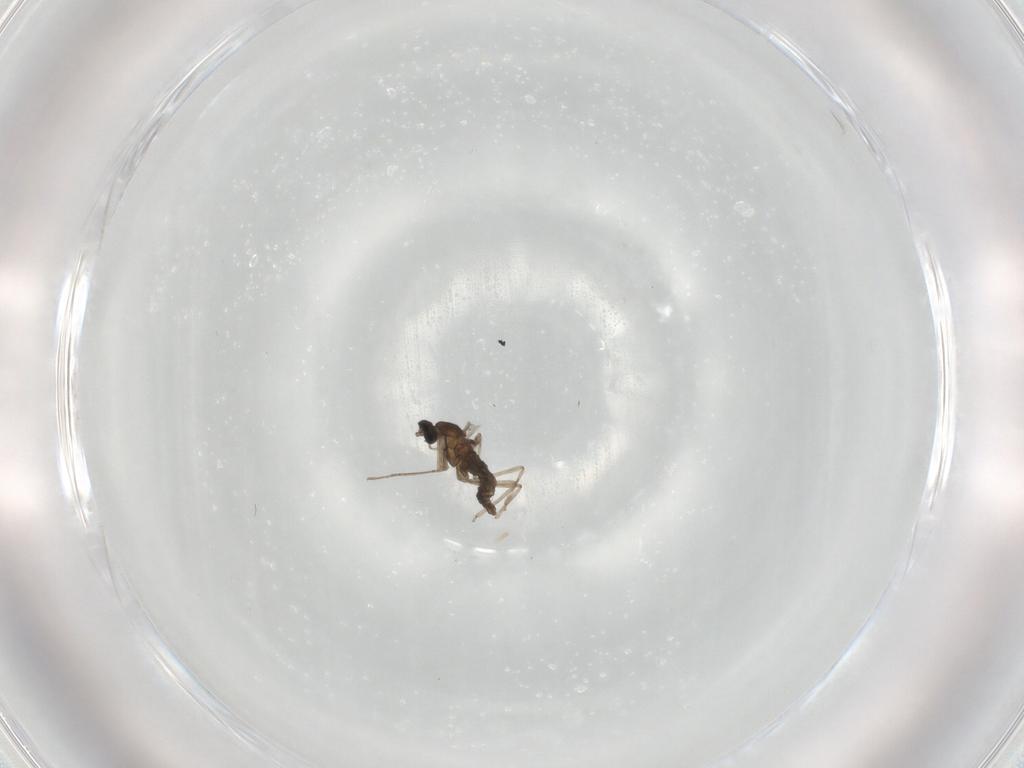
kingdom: Animalia
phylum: Arthropoda
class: Insecta
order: Diptera
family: Cecidomyiidae
